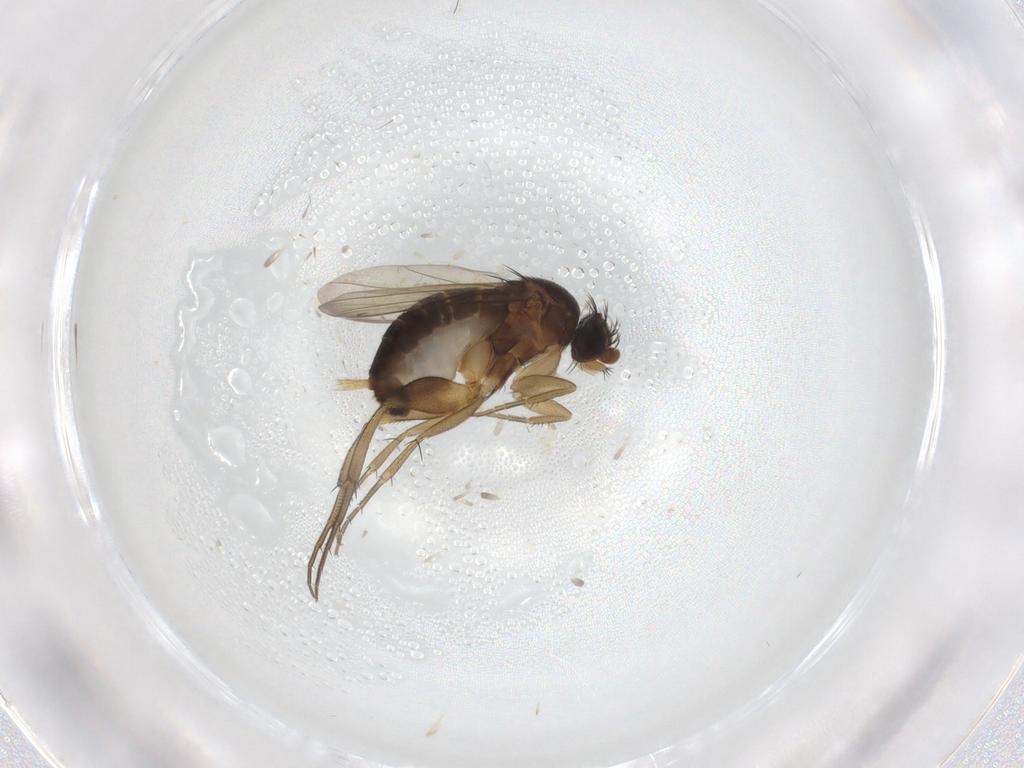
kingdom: Animalia
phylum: Arthropoda
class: Insecta
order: Diptera
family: Phoridae
